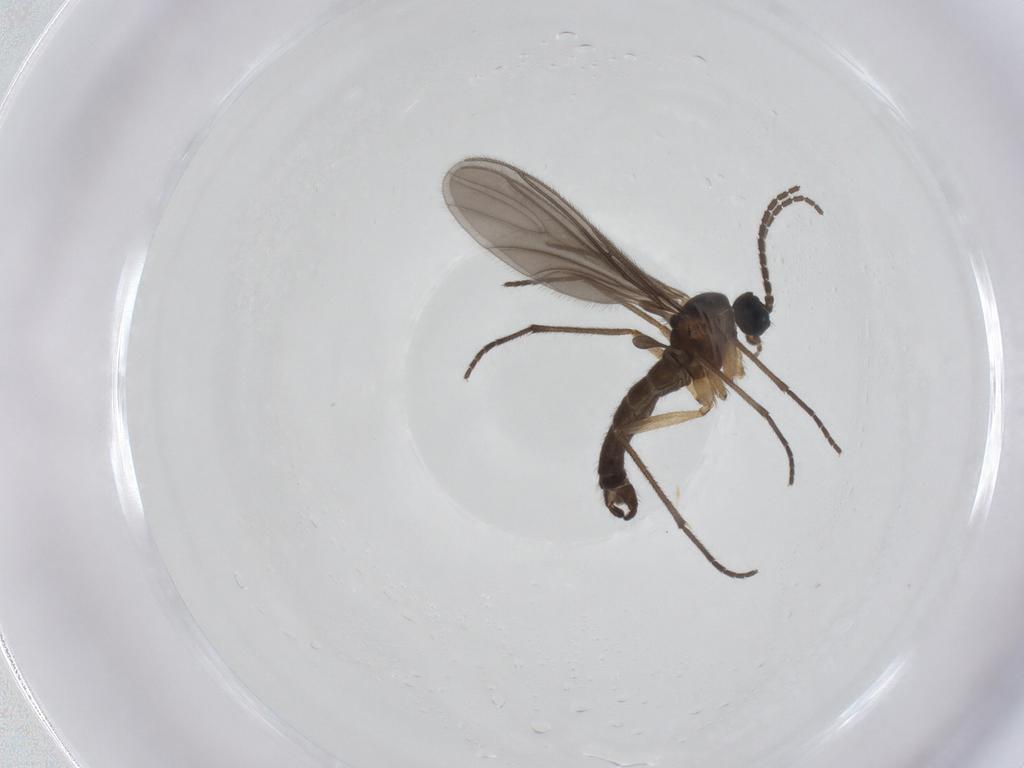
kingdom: Animalia
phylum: Arthropoda
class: Insecta
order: Diptera
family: Sciaridae
